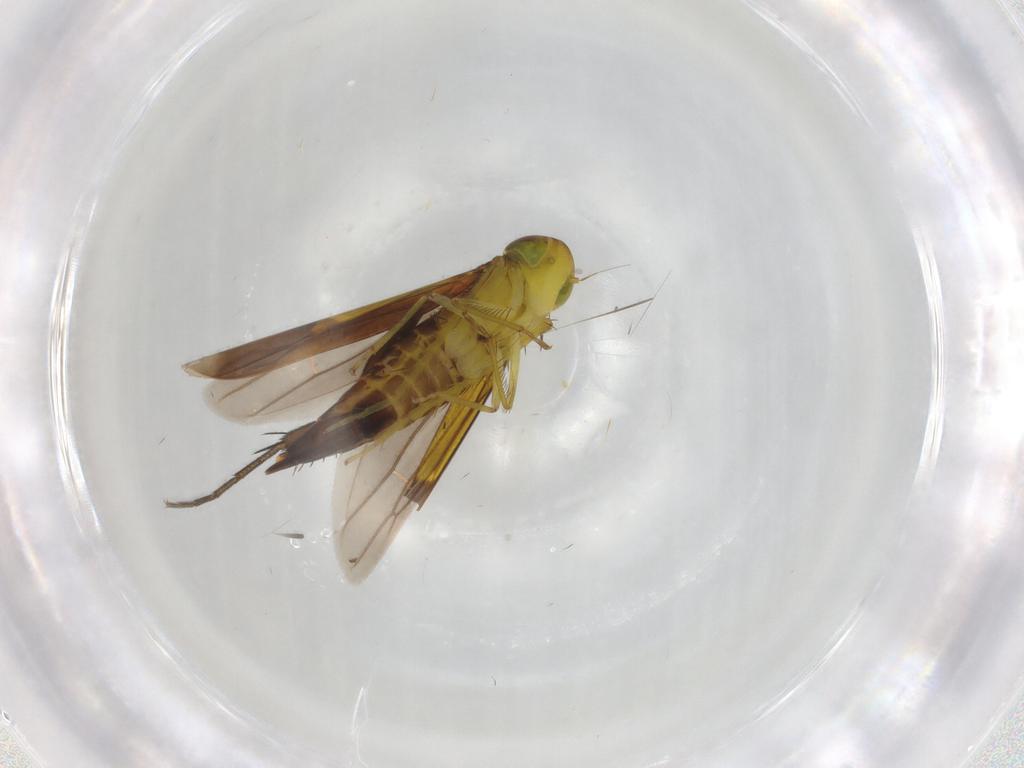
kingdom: Animalia
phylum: Arthropoda
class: Insecta
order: Hemiptera
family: Cicadellidae
